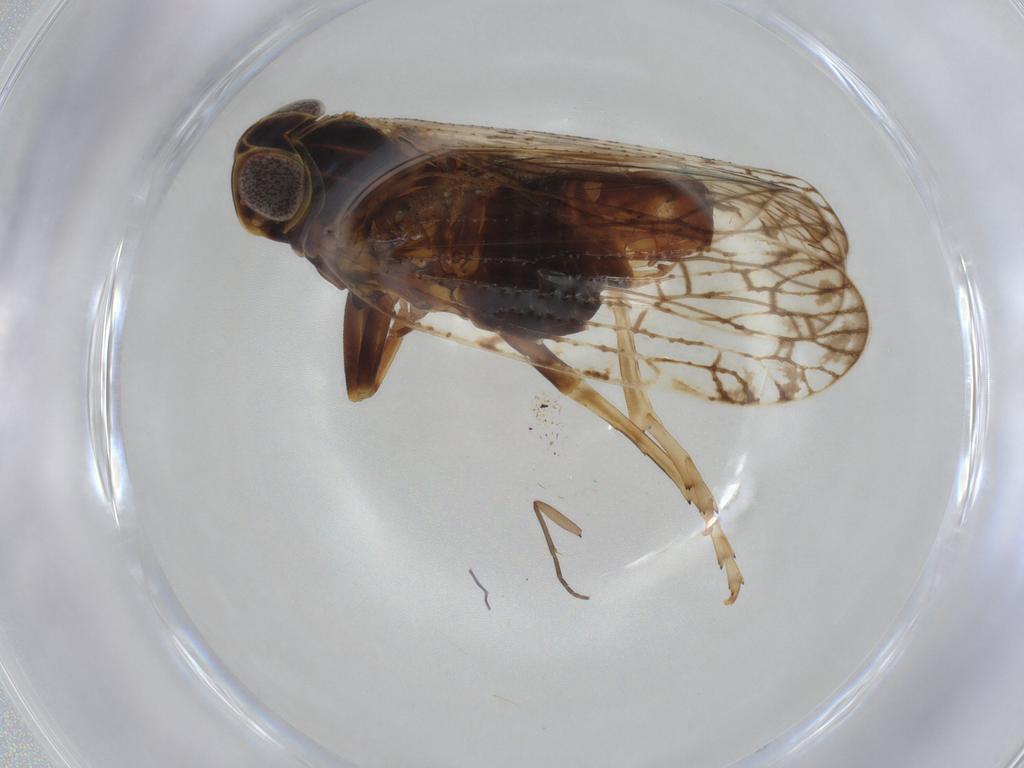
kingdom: Animalia
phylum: Arthropoda
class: Insecta
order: Hemiptera
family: Cixiidae
